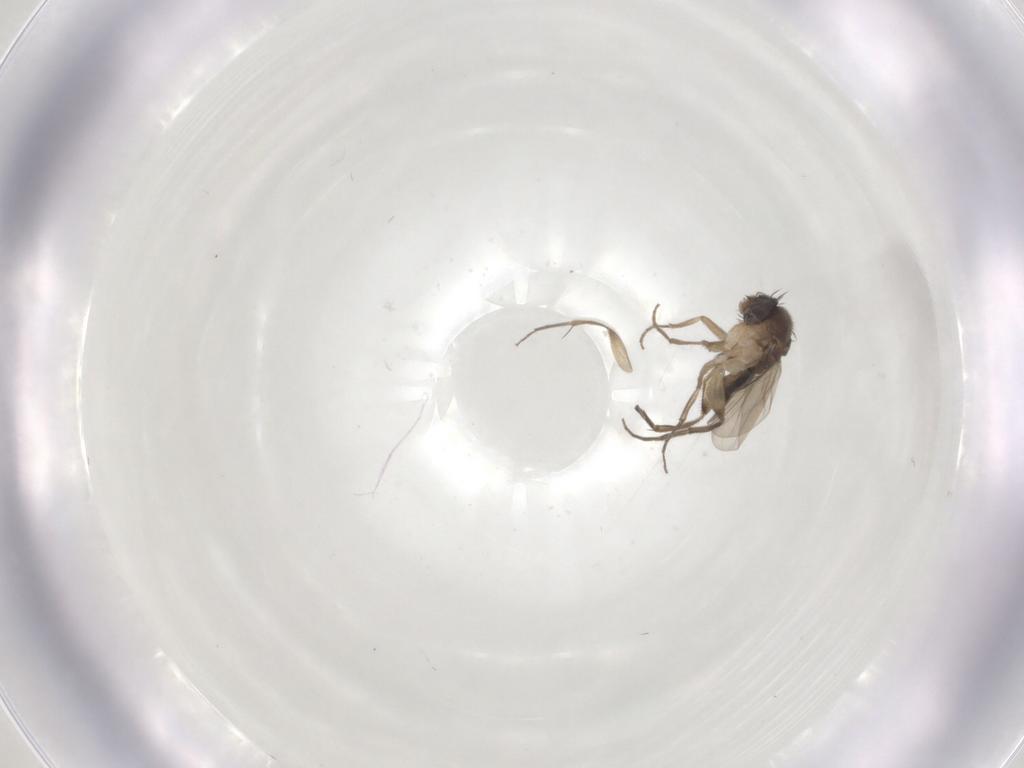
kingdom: Animalia
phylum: Arthropoda
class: Insecta
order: Diptera
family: Phoridae
